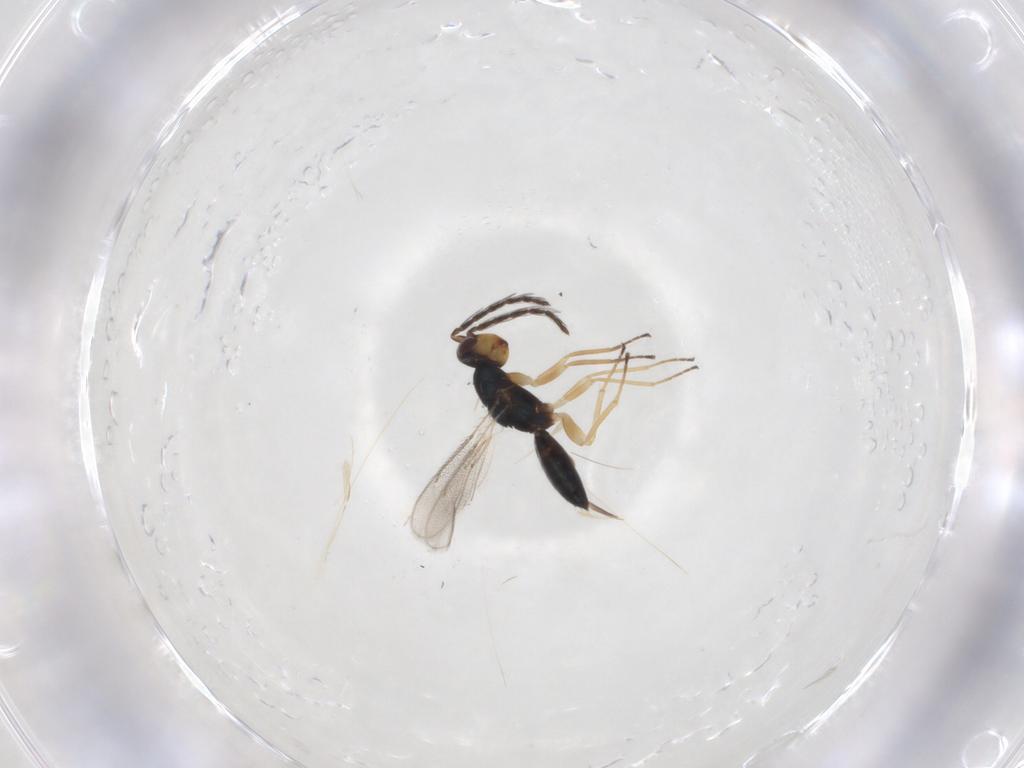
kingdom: Animalia
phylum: Arthropoda
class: Insecta
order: Hymenoptera
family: Eulophidae
